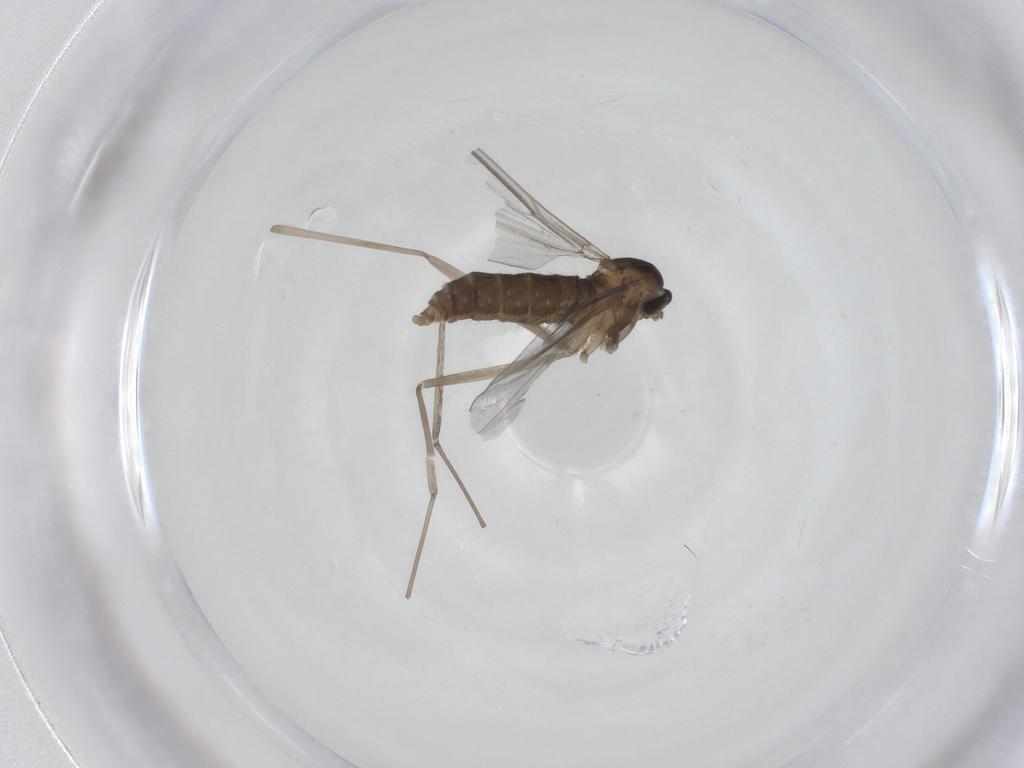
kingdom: Animalia
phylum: Arthropoda
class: Insecta
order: Diptera
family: Cecidomyiidae
